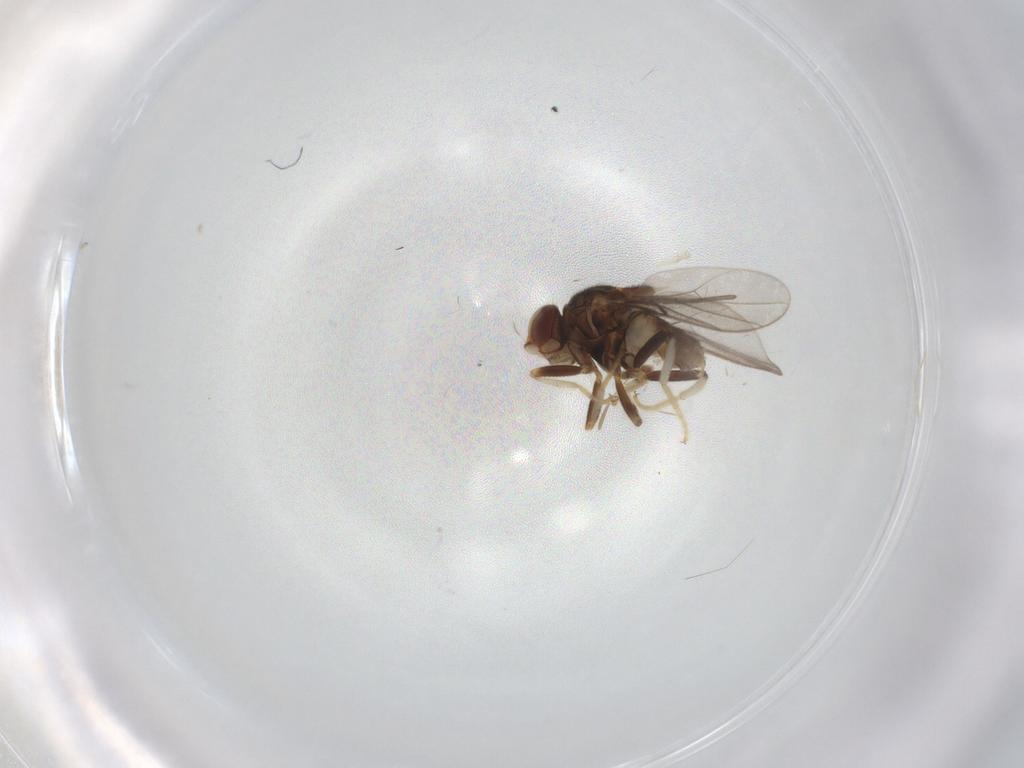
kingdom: Animalia
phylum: Arthropoda
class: Insecta
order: Diptera
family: Chloropidae
